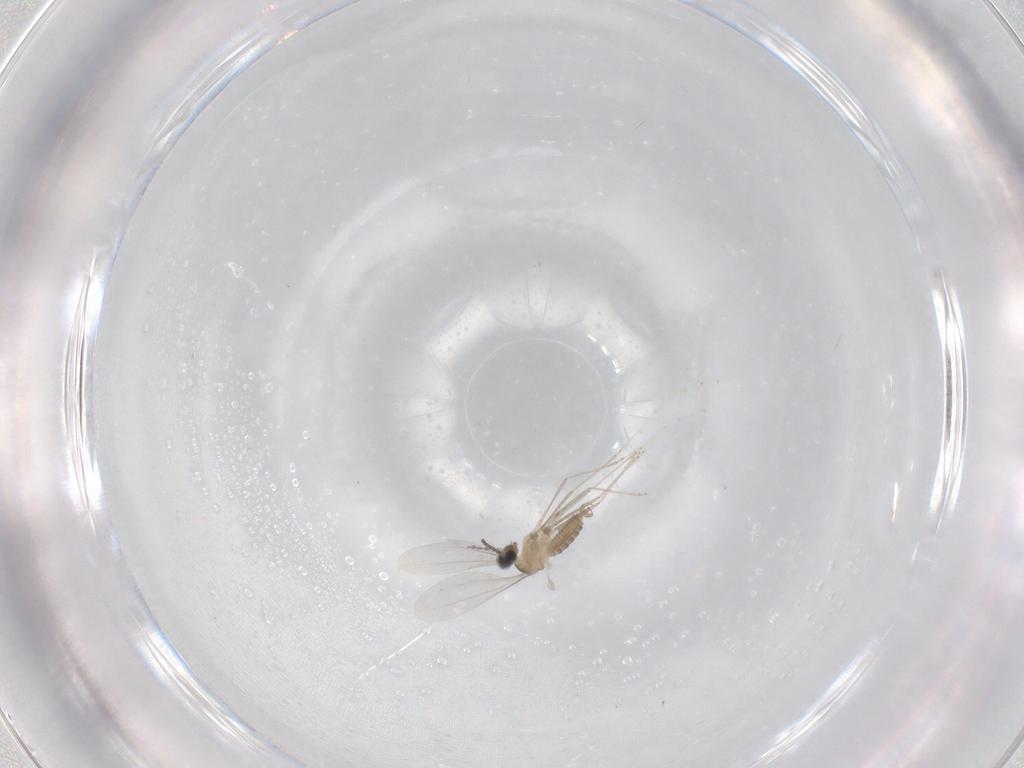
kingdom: Animalia
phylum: Arthropoda
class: Insecta
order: Diptera
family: Cecidomyiidae
